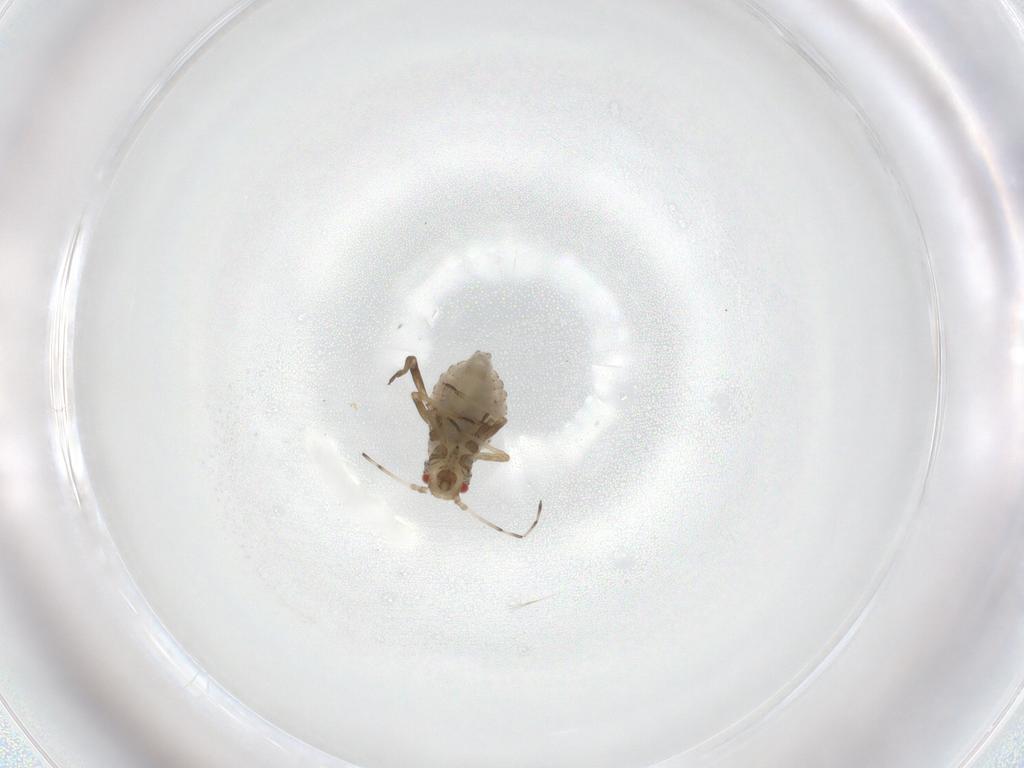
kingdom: Animalia
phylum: Arthropoda
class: Insecta
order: Hemiptera
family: Aphididae
